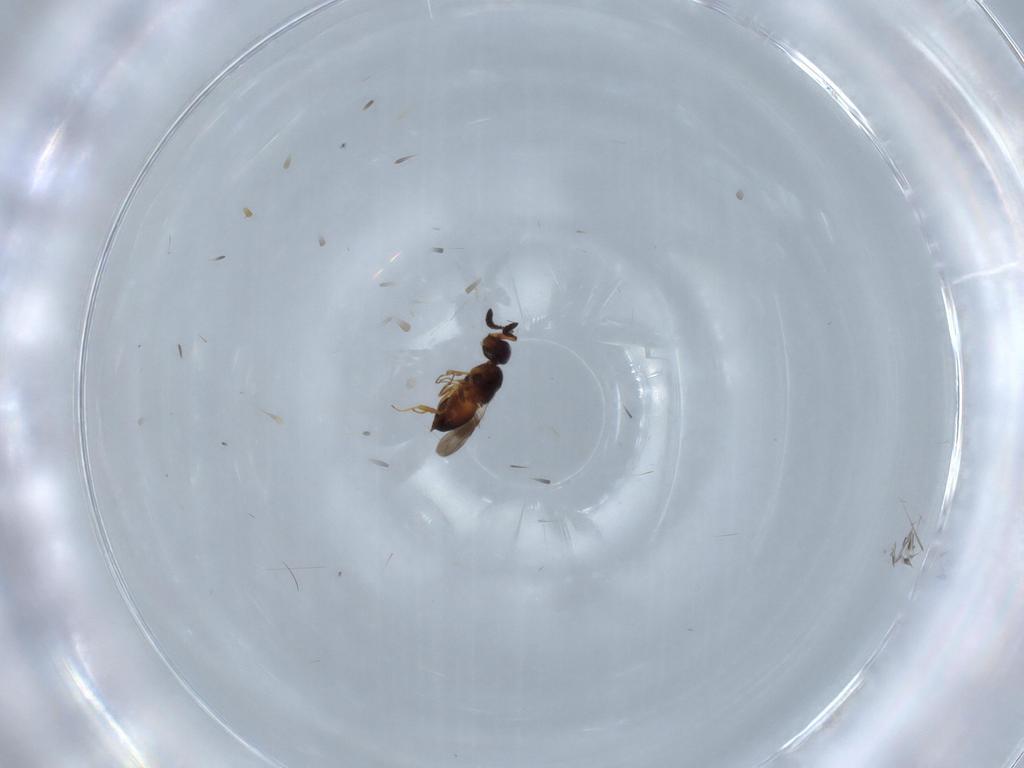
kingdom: Animalia
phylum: Arthropoda
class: Insecta
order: Hymenoptera
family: Ceraphronidae
